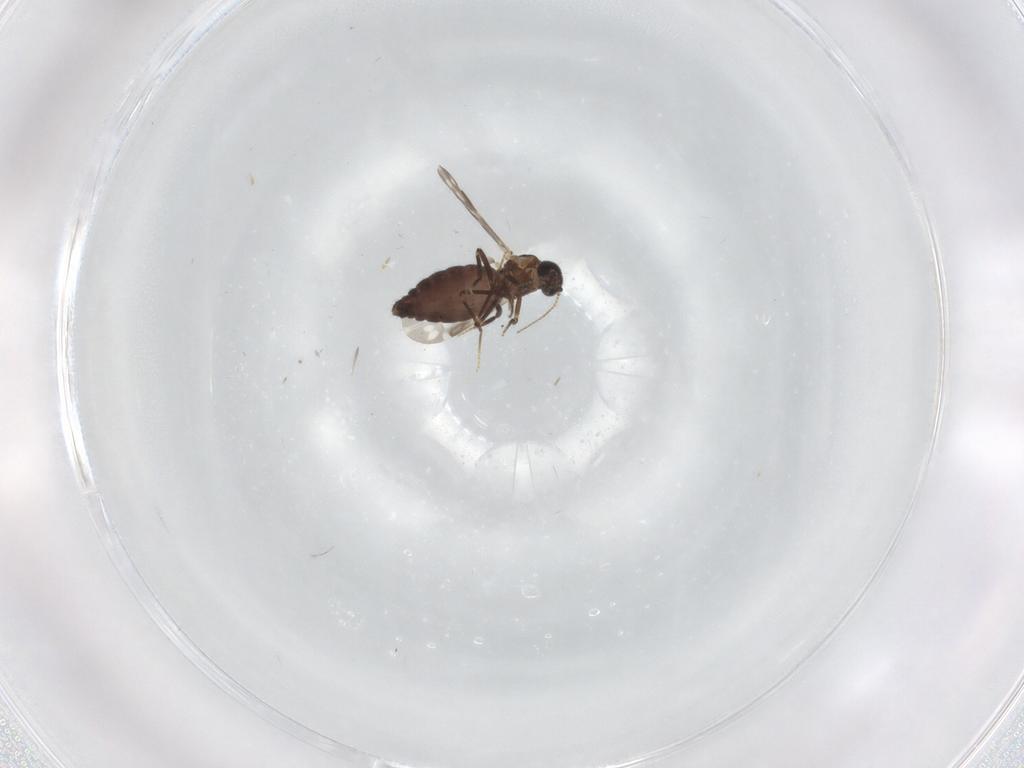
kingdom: Animalia
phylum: Arthropoda
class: Insecta
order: Diptera
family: Ceratopogonidae
